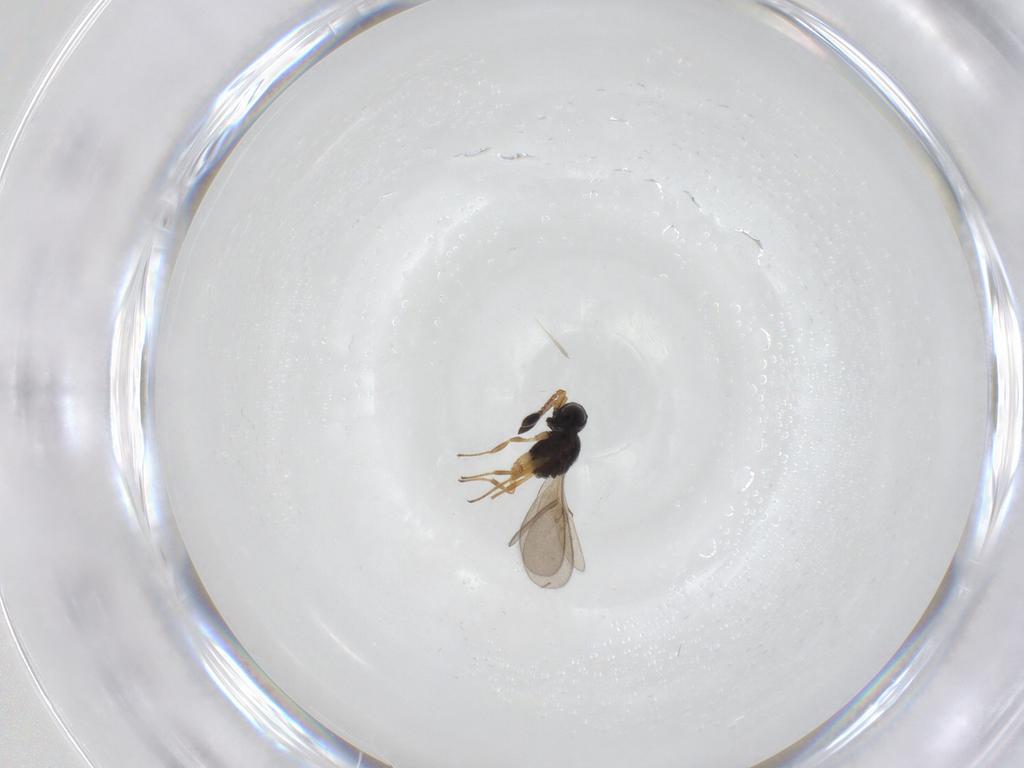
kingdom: Animalia
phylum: Arthropoda
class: Insecta
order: Hymenoptera
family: Scelionidae
